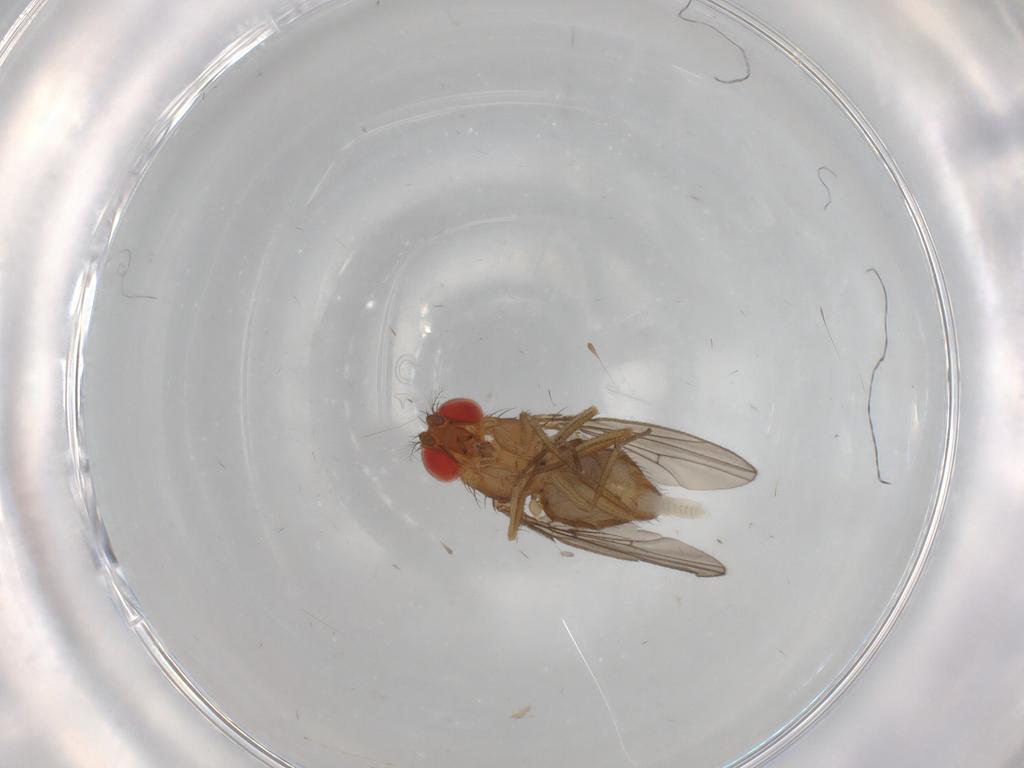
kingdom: Animalia
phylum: Arthropoda
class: Insecta
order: Diptera
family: Drosophilidae
